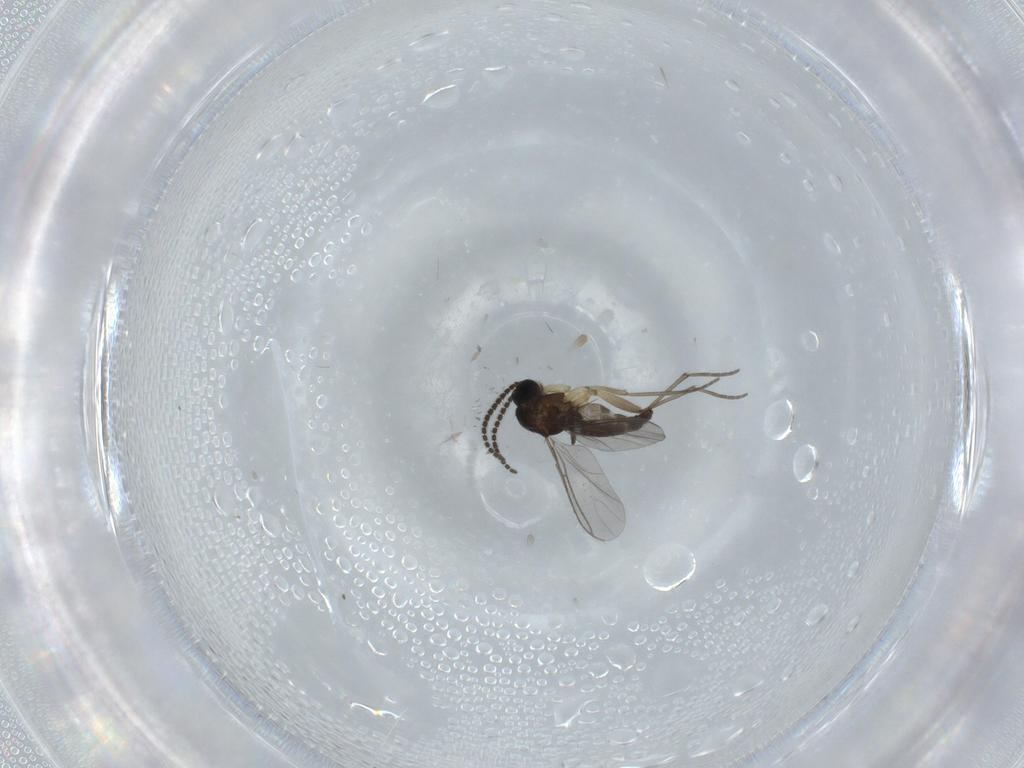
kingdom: Animalia
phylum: Arthropoda
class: Insecta
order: Diptera
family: Sciaridae
